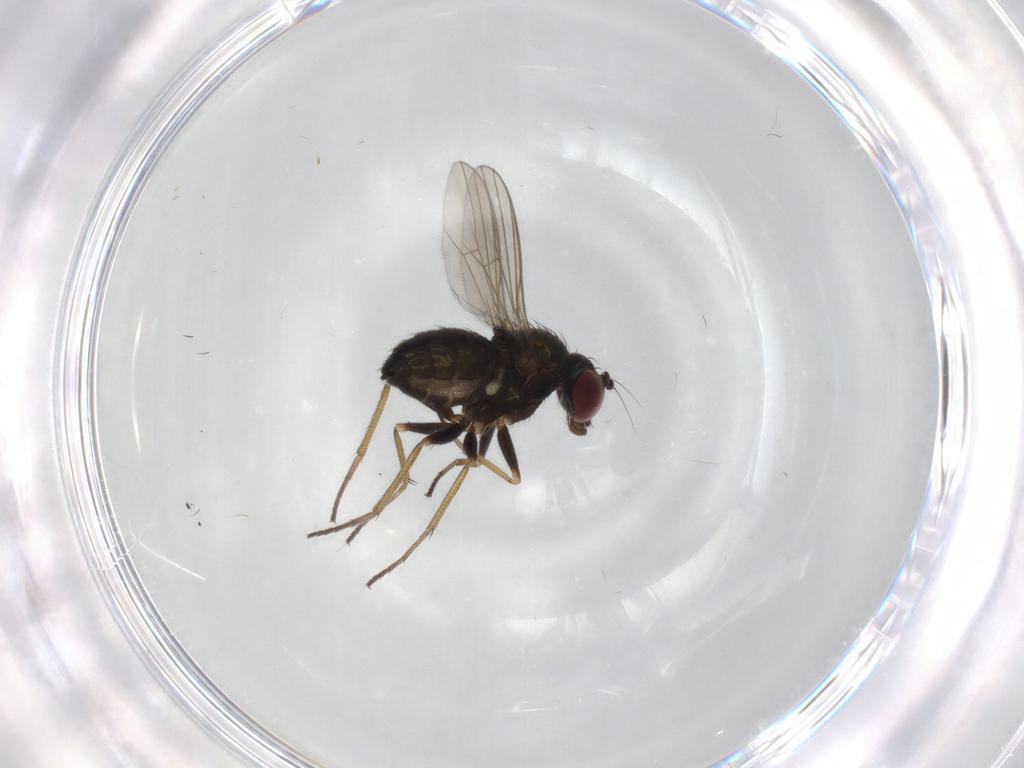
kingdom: Animalia
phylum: Arthropoda
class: Insecta
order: Diptera
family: Dolichopodidae
